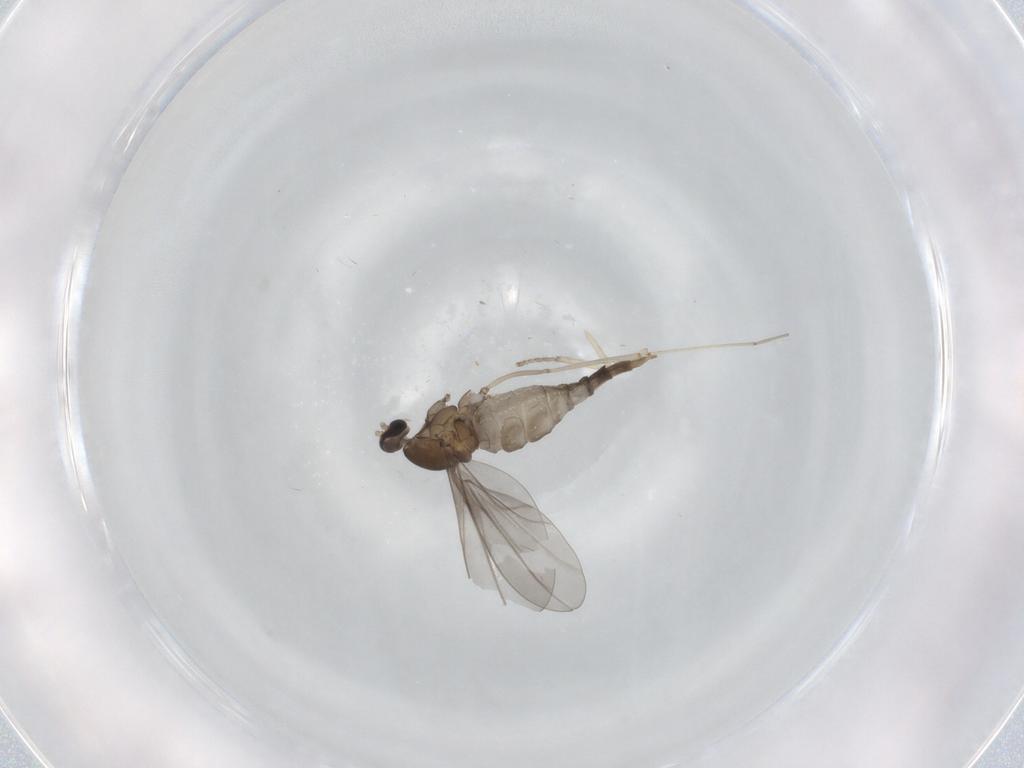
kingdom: Animalia
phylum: Arthropoda
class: Insecta
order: Diptera
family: Cecidomyiidae
